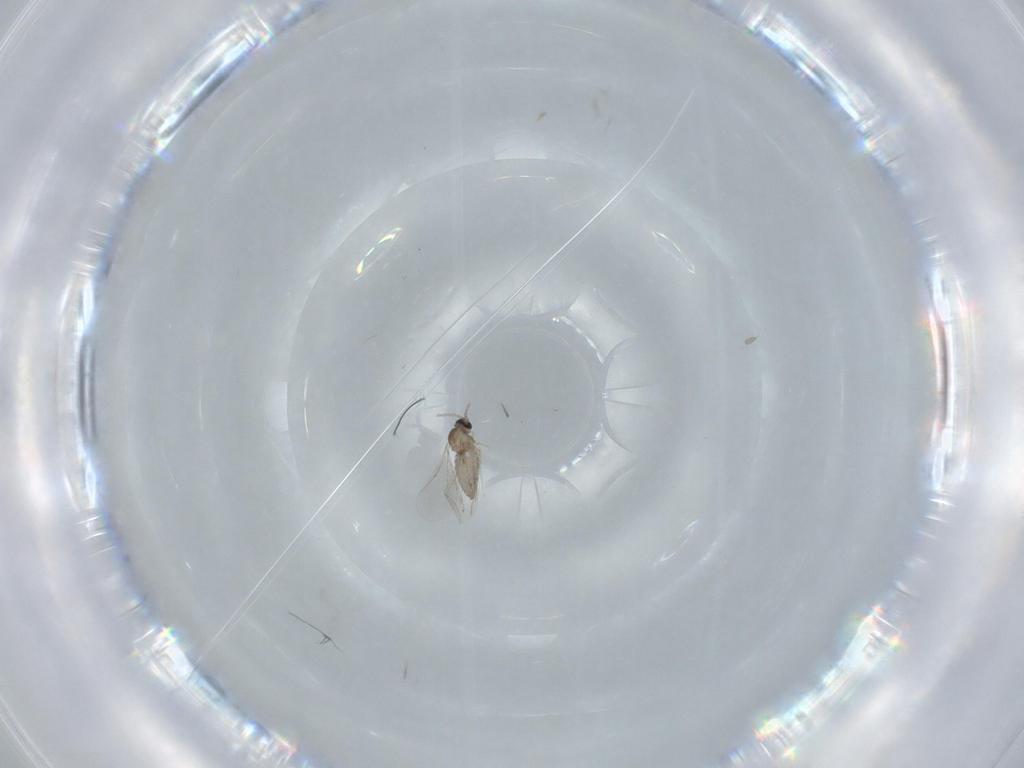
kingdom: Animalia
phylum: Arthropoda
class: Insecta
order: Diptera
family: Cecidomyiidae
